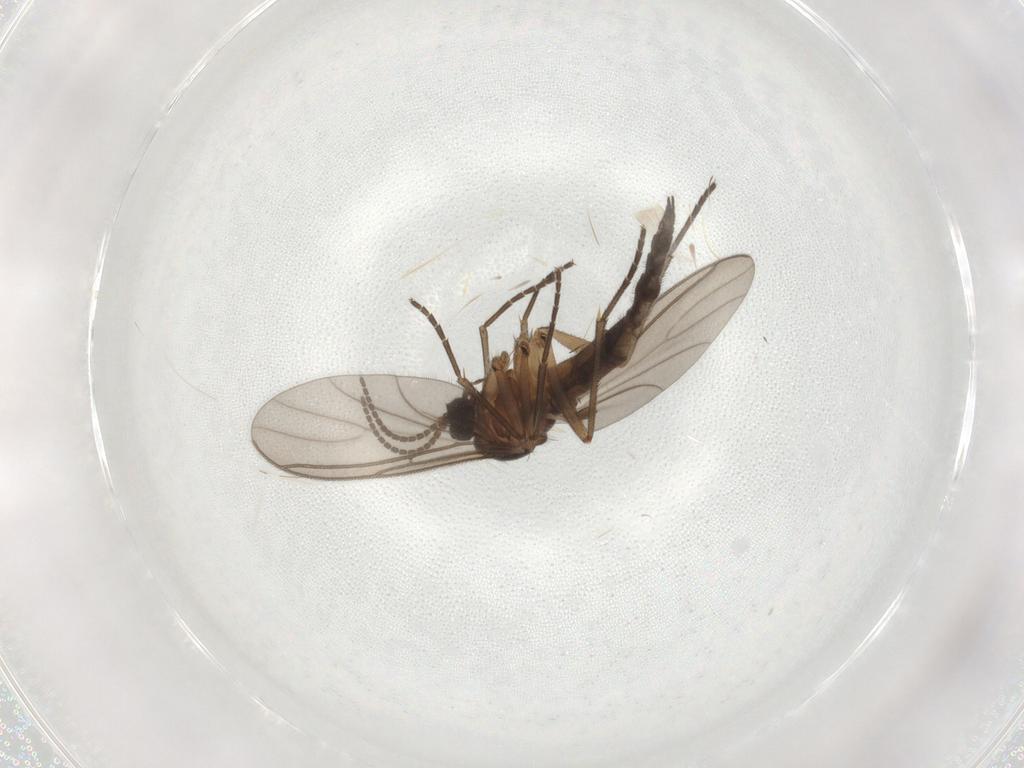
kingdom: Animalia
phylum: Arthropoda
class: Insecta
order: Diptera
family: Sciaridae
